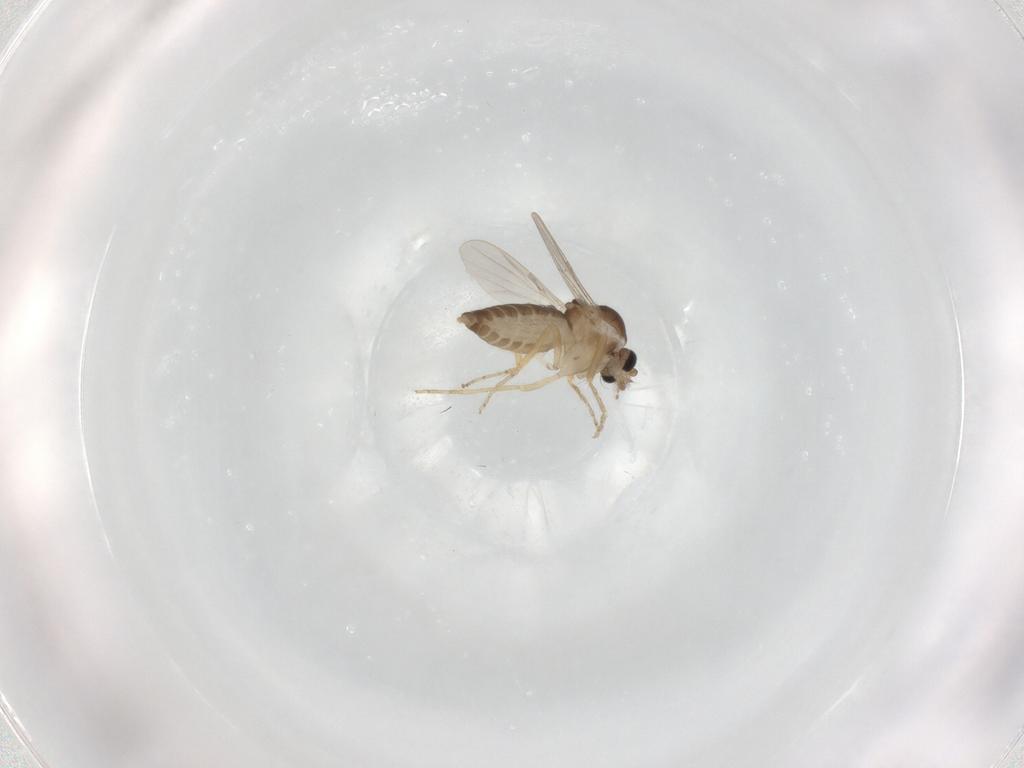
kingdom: Animalia
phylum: Arthropoda
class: Insecta
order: Diptera
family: Ceratopogonidae
